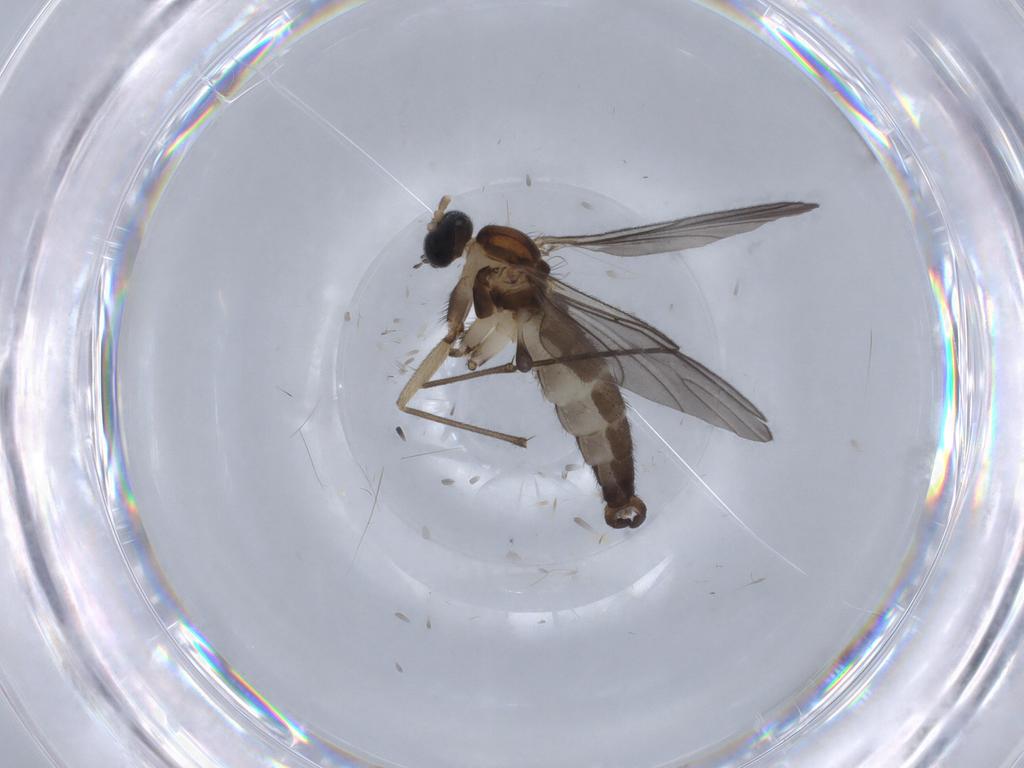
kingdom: Animalia
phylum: Arthropoda
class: Insecta
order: Diptera
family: Sciaridae
